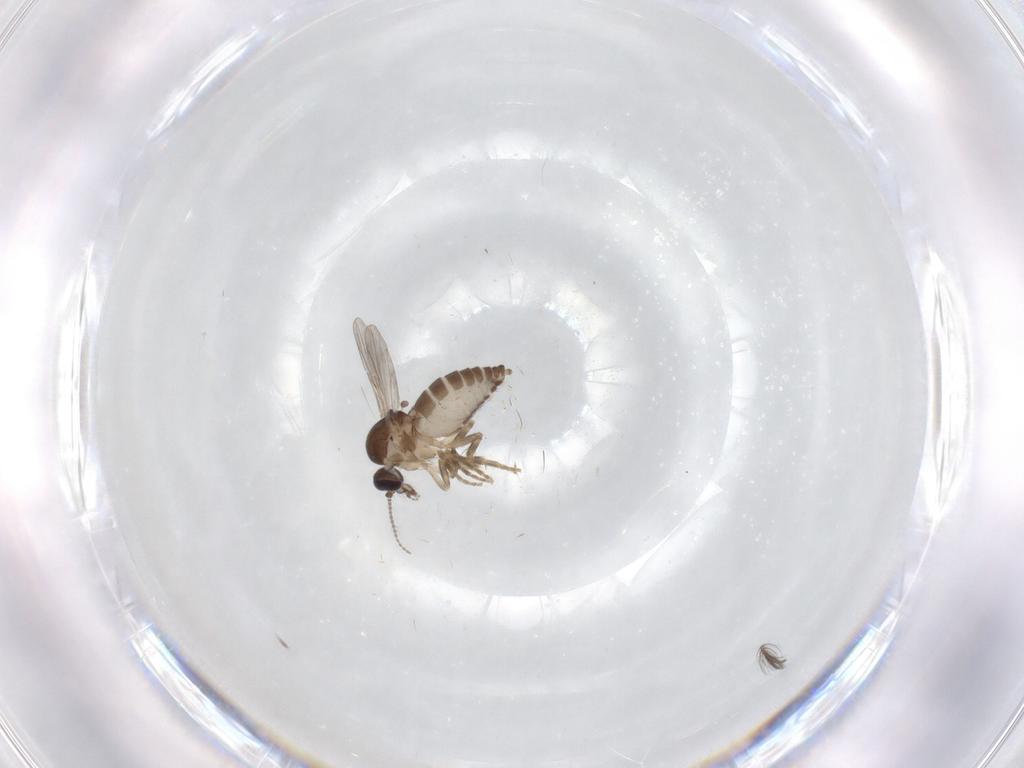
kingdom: Animalia
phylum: Arthropoda
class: Insecta
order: Diptera
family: Ceratopogonidae
